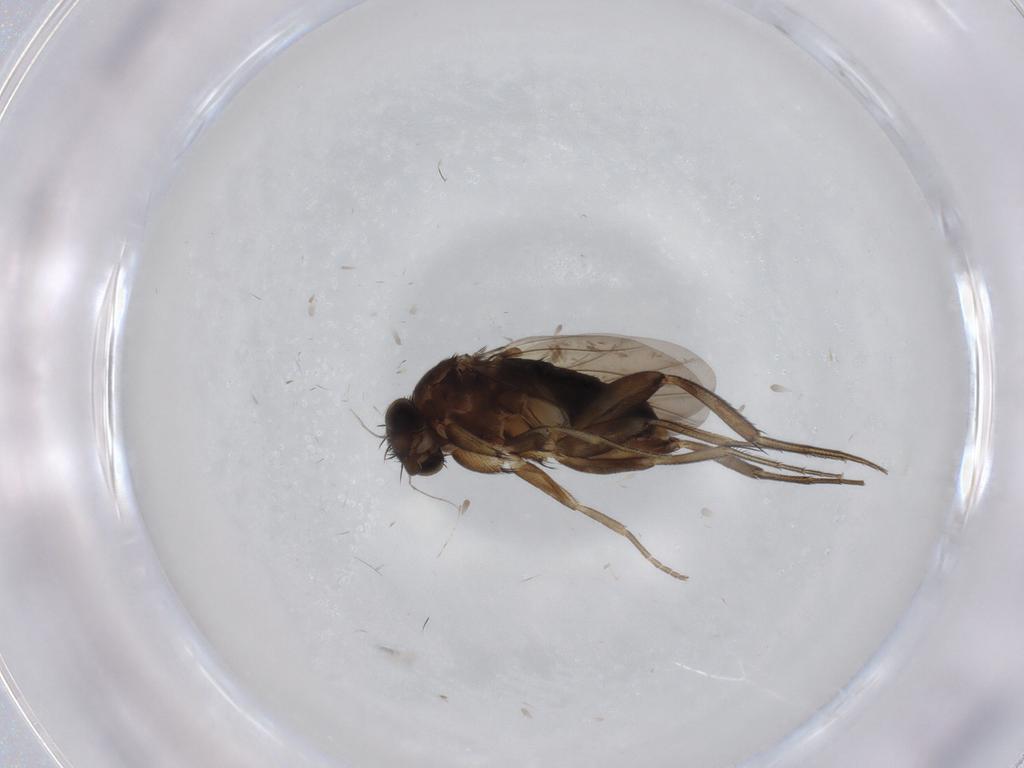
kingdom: Animalia
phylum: Arthropoda
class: Insecta
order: Diptera
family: Phoridae
